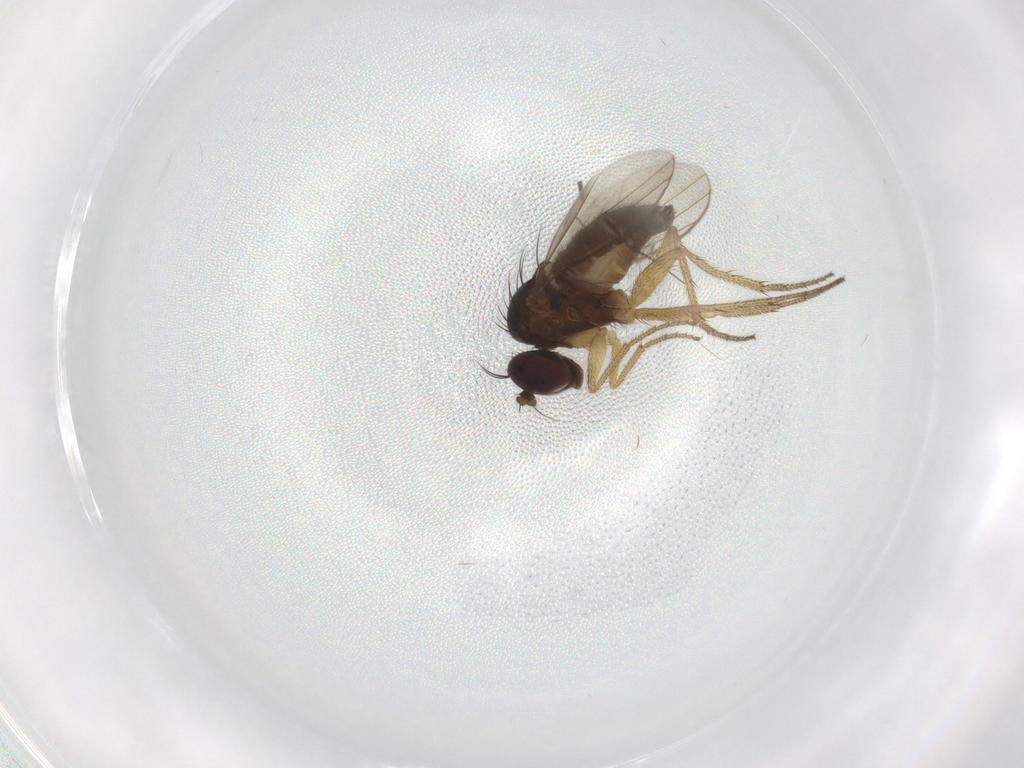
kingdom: Animalia
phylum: Arthropoda
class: Insecta
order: Diptera
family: Dolichopodidae
